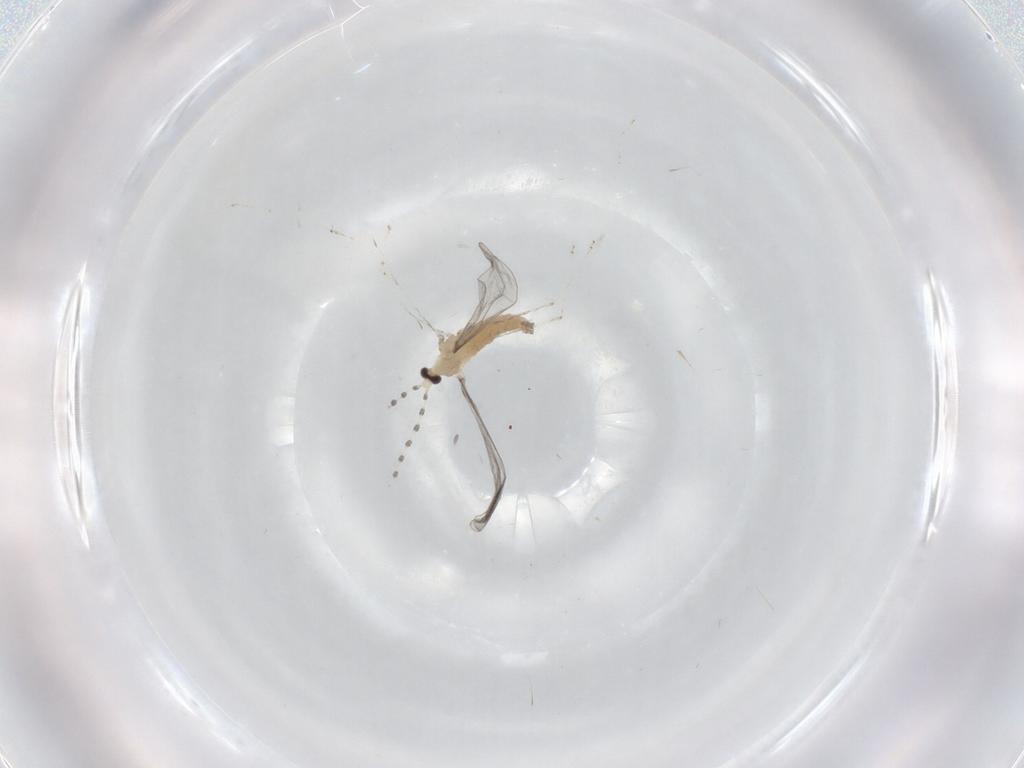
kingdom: Animalia
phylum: Arthropoda
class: Insecta
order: Diptera
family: Cecidomyiidae
